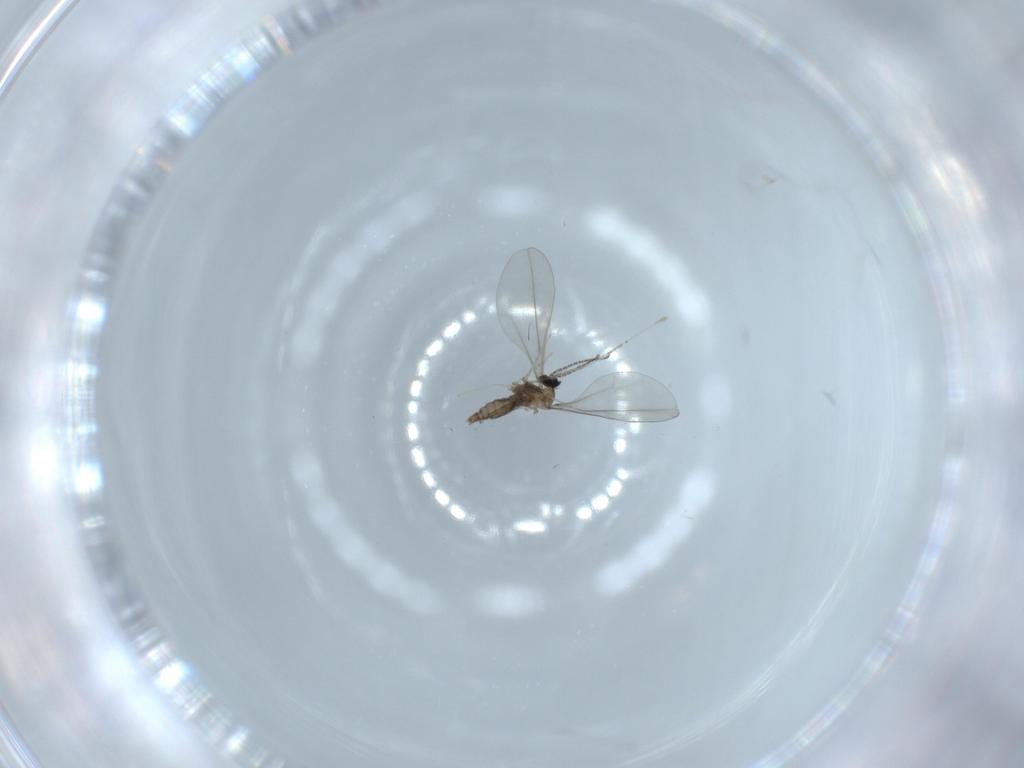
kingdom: Animalia
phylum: Arthropoda
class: Insecta
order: Diptera
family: Cecidomyiidae
